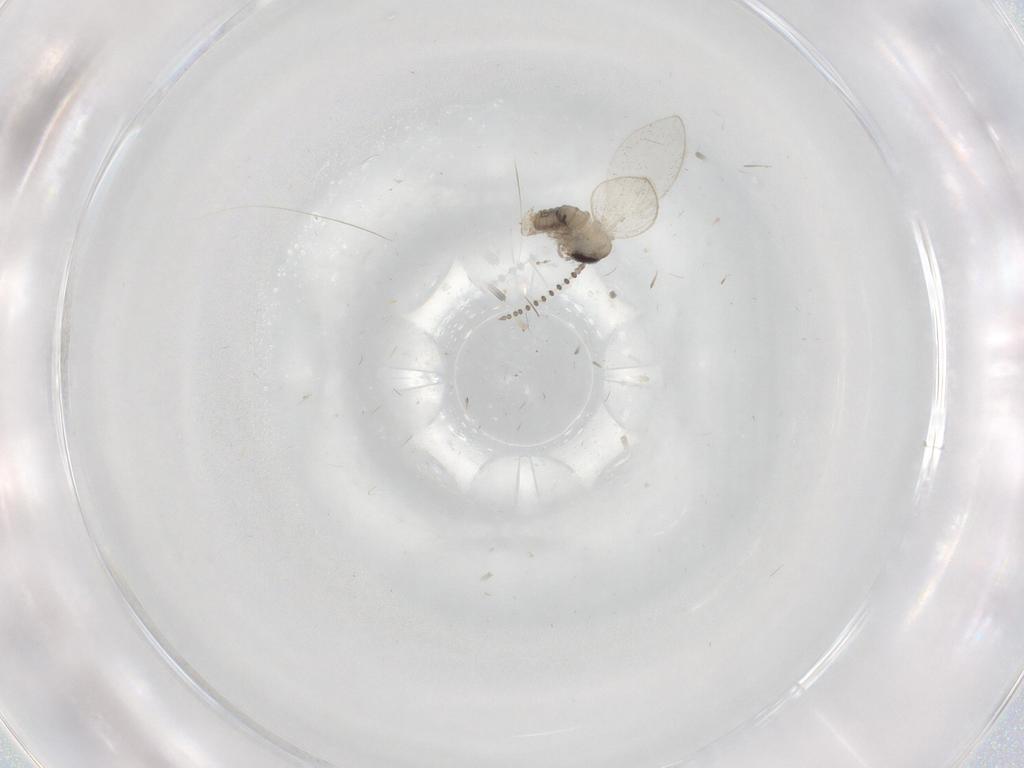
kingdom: Animalia
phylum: Arthropoda
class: Insecta
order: Diptera
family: Psychodidae
